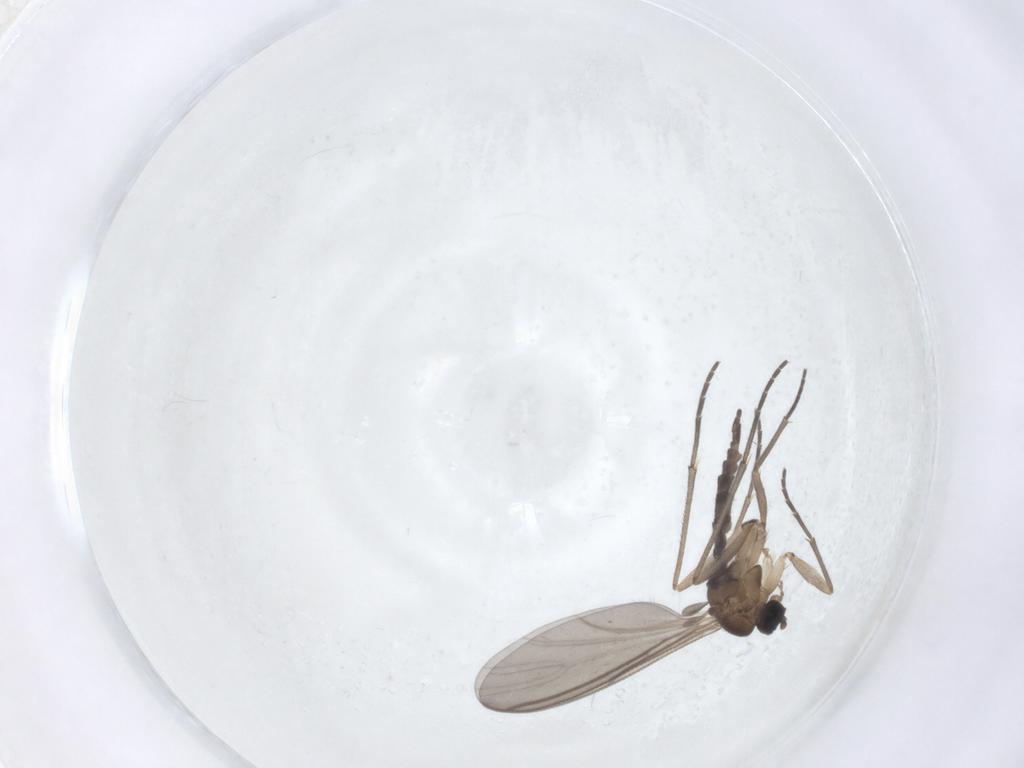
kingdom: Animalia
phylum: Arthropoda
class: Insecta
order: Diptera
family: Sciaridae
